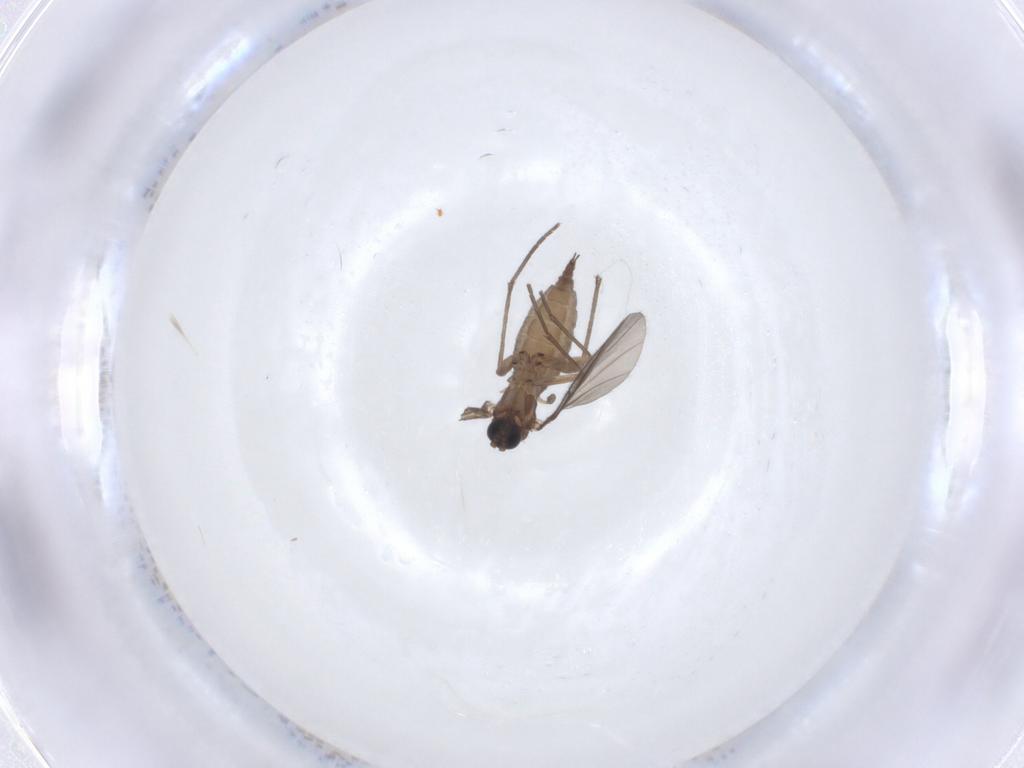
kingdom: Animalia
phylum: Arthropoda
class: Insecta
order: Diptera
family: Sciaridae
